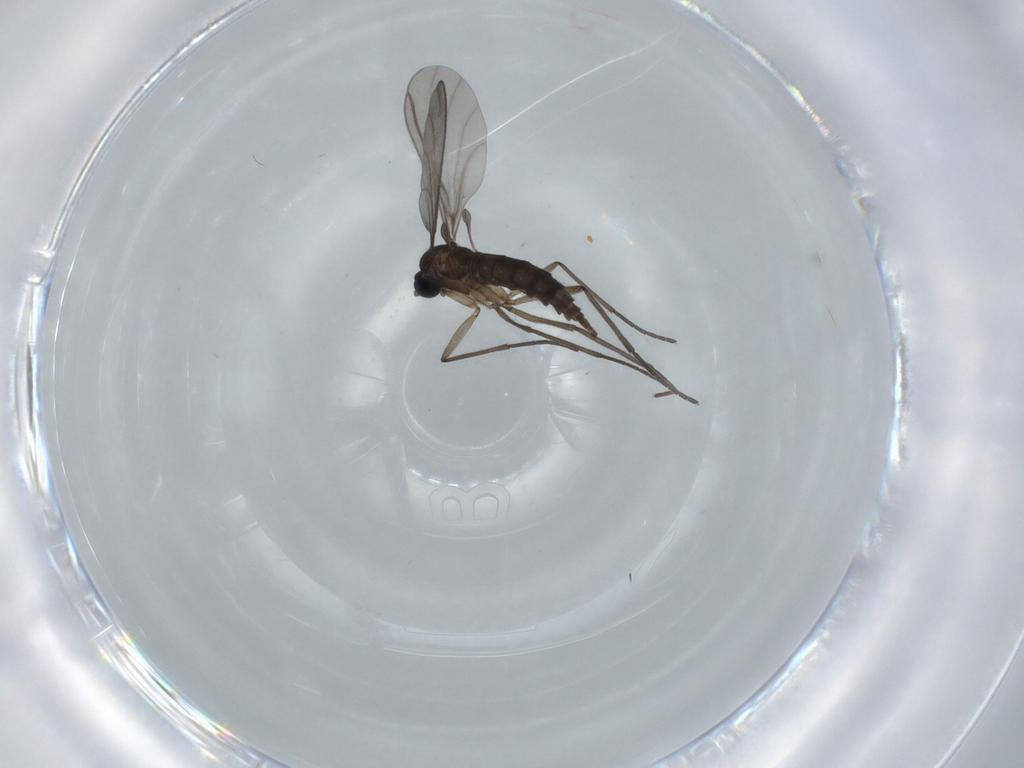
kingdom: Animalia
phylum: Arthropoda
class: Insecta
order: Diptera
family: Sciaridae
